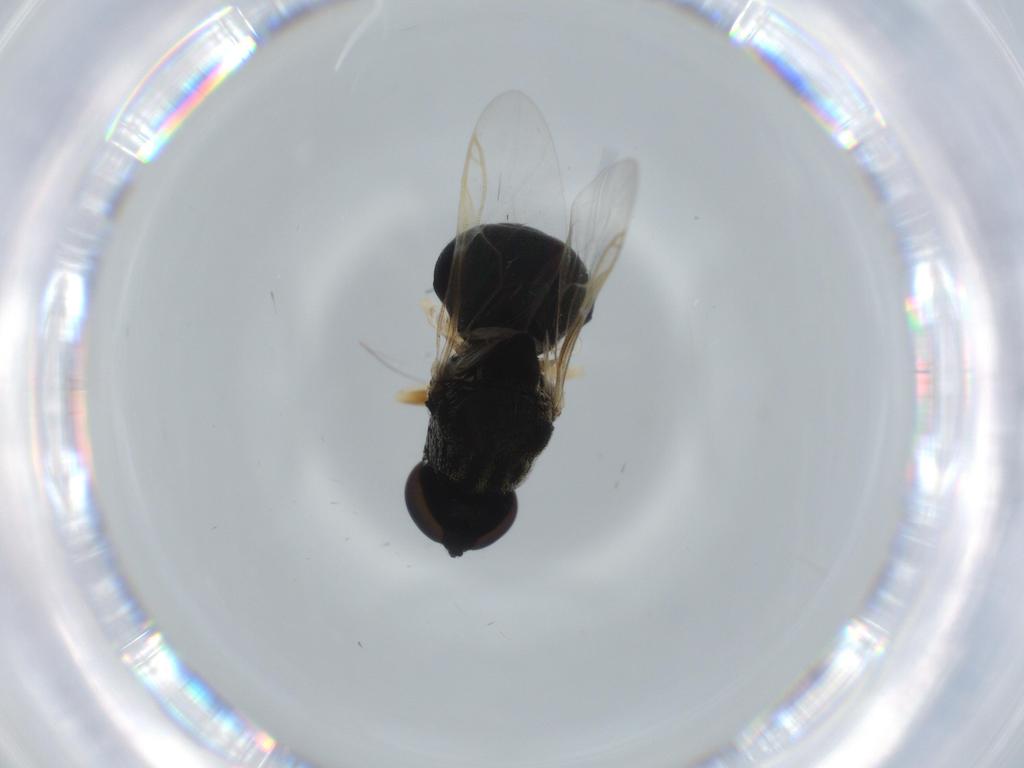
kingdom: Animalia
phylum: Arthropoda
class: Insecta
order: Diptera
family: Stratiomyidae
